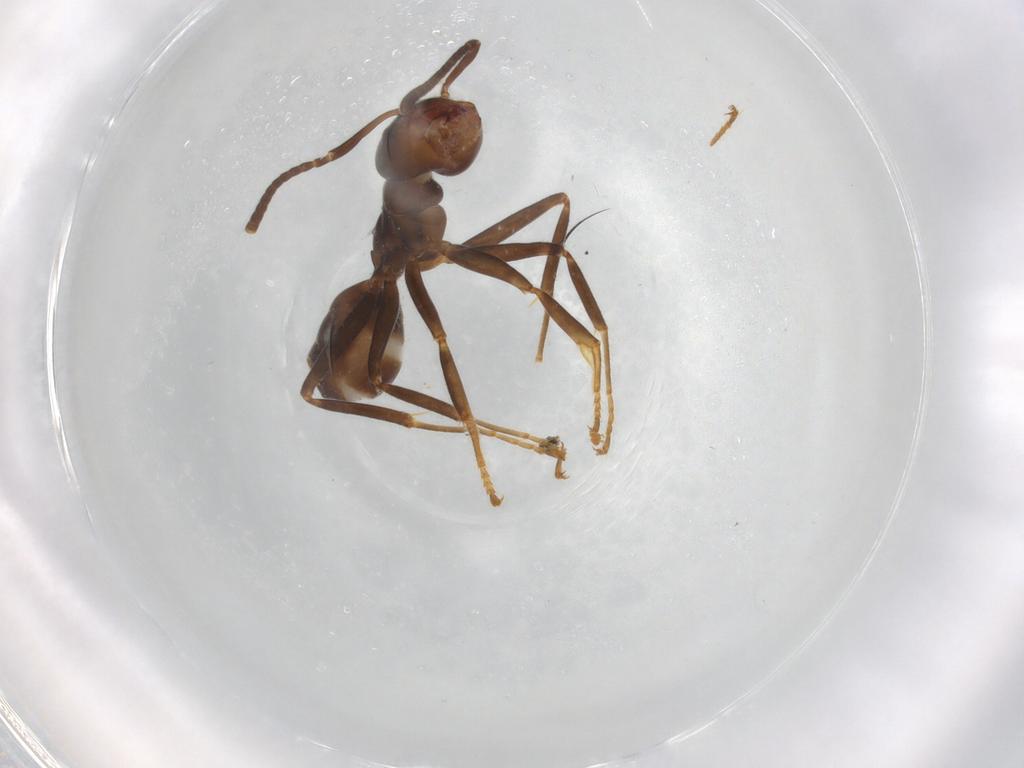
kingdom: Animalia
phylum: Arthropoda
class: Insecta
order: Hymenoptera
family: Formicidae
